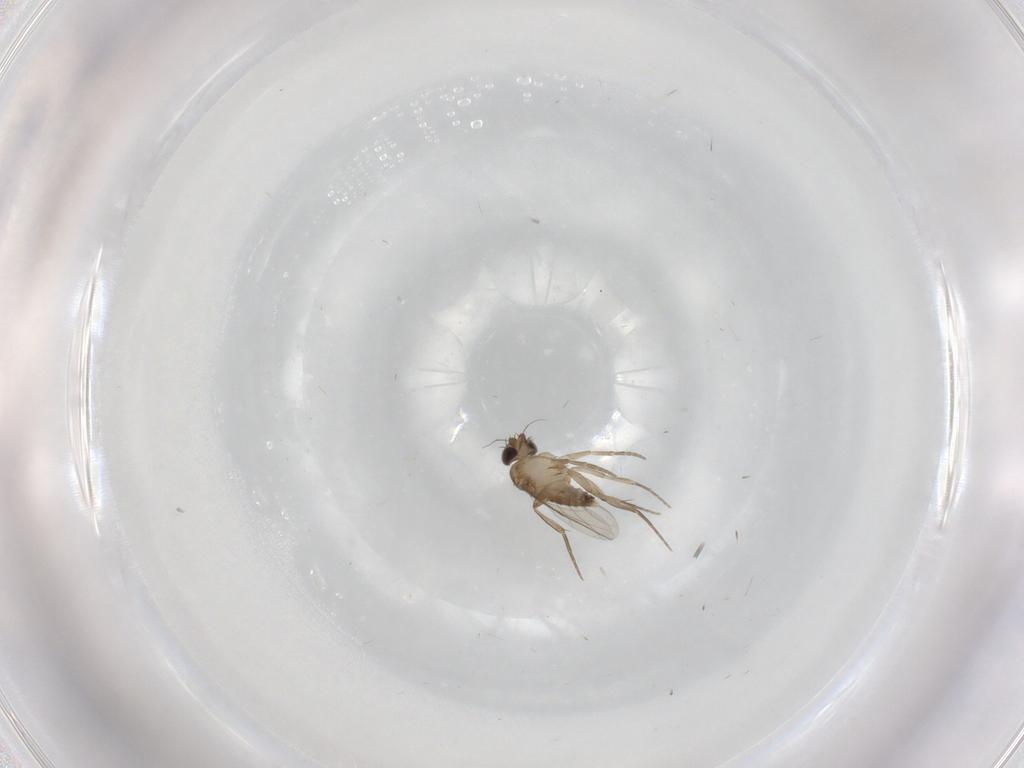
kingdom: Animalia
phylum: Arthropoda
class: Insecta
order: Diptera
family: Phoridae
